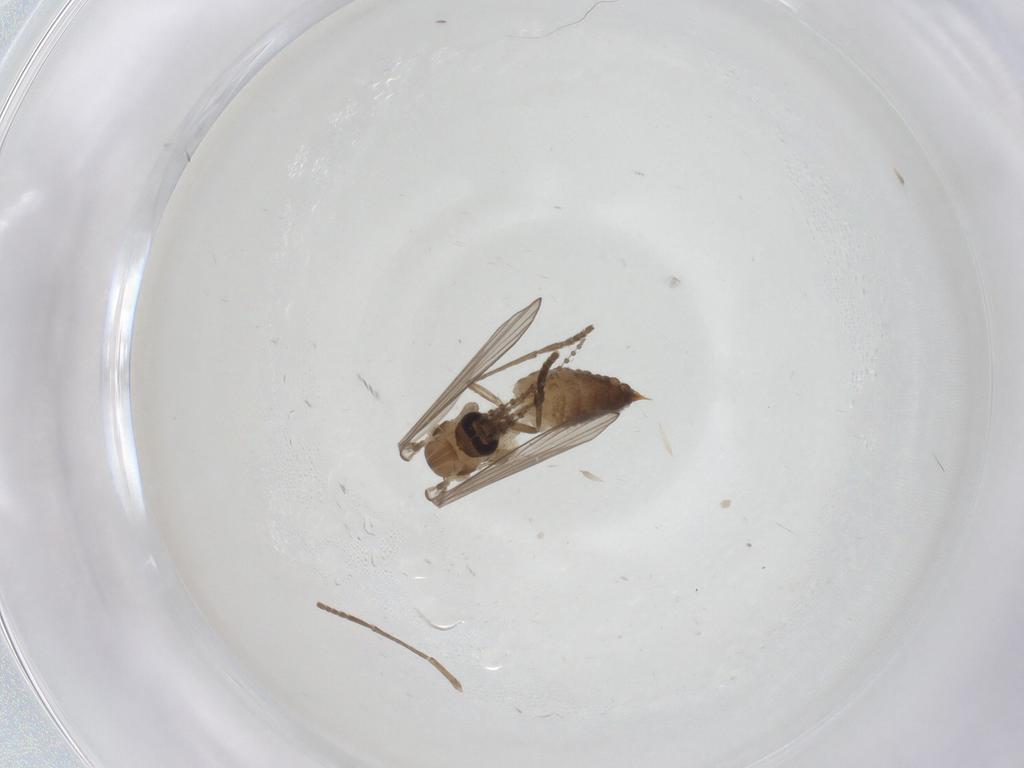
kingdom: Animalia
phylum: Arthropoda
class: Insecta
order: Diptera
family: Psychodidae
